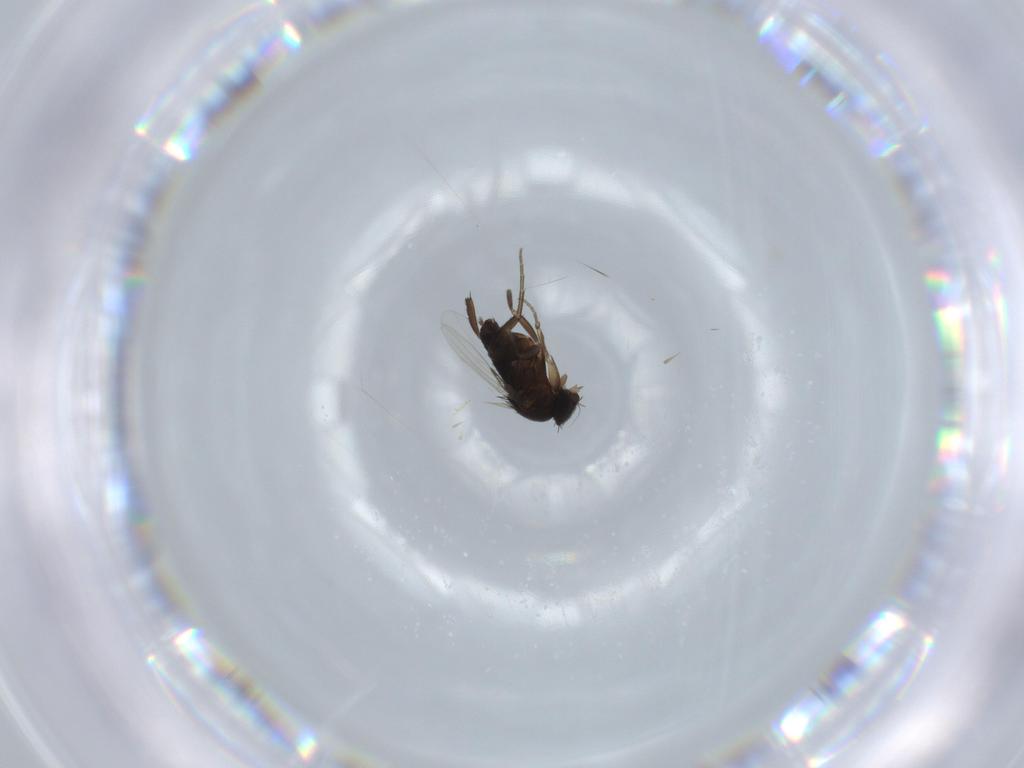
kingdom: Animalia
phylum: Arthropoda
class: Insecta
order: Diptera
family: Phoridae
